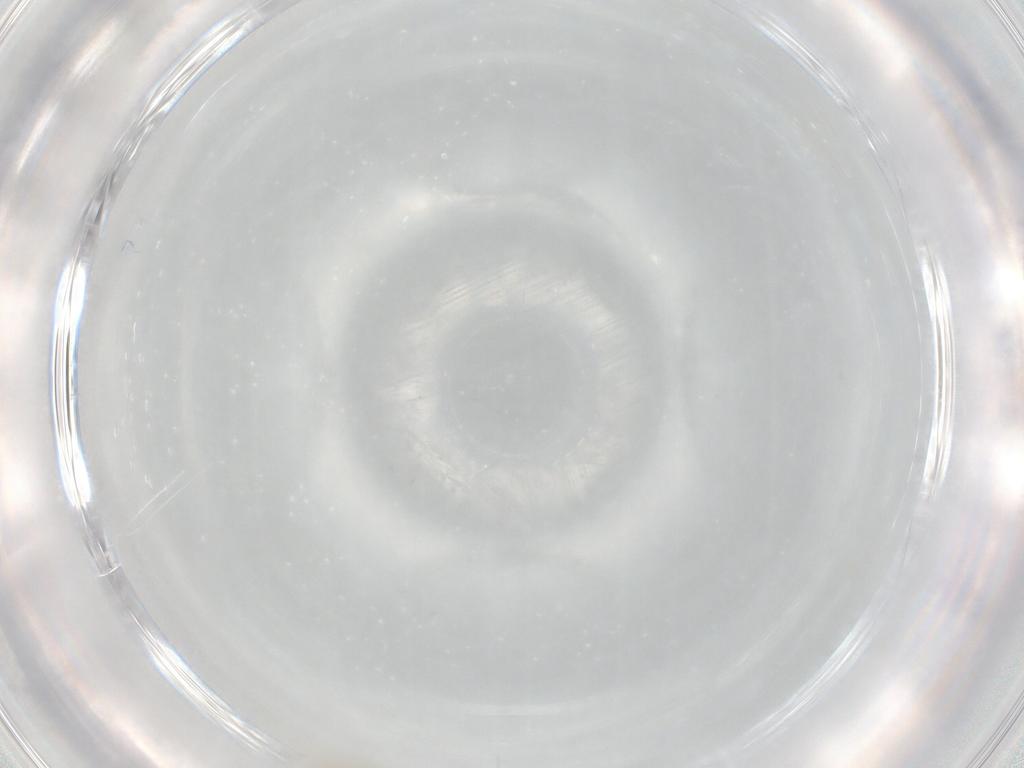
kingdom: Animalia
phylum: Arthropoda
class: Insecta
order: Diptera
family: Cecidomyiidae
